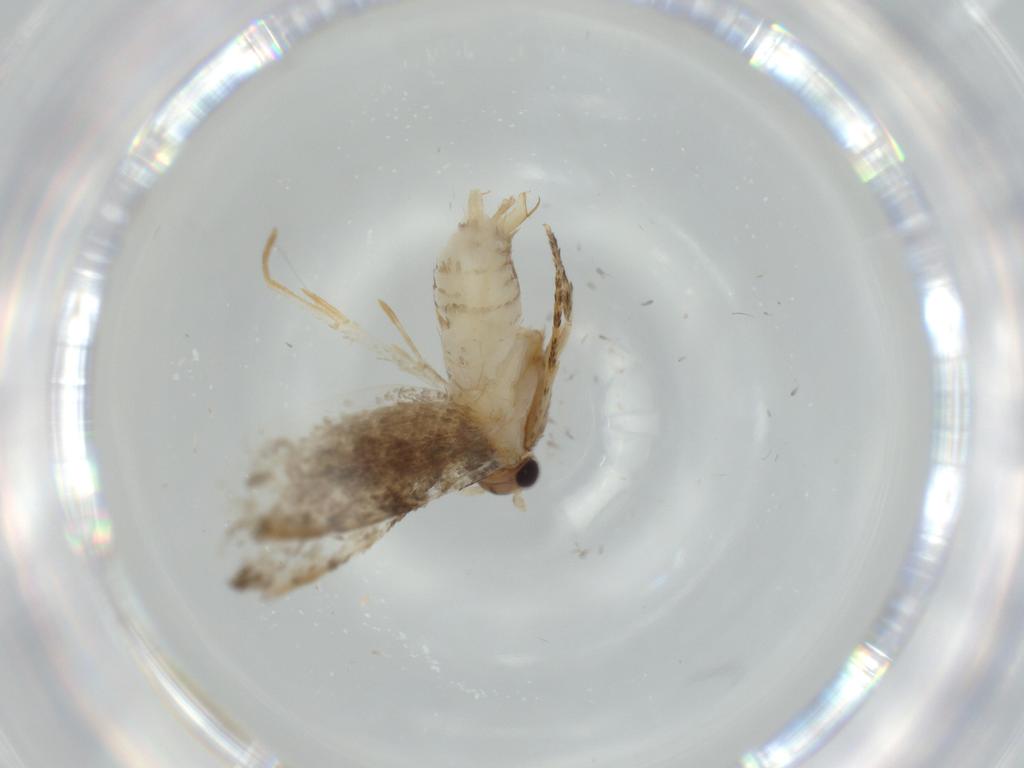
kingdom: Animalia
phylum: Arthropoda
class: Insecta
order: Lepidoptera
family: Tineidae
